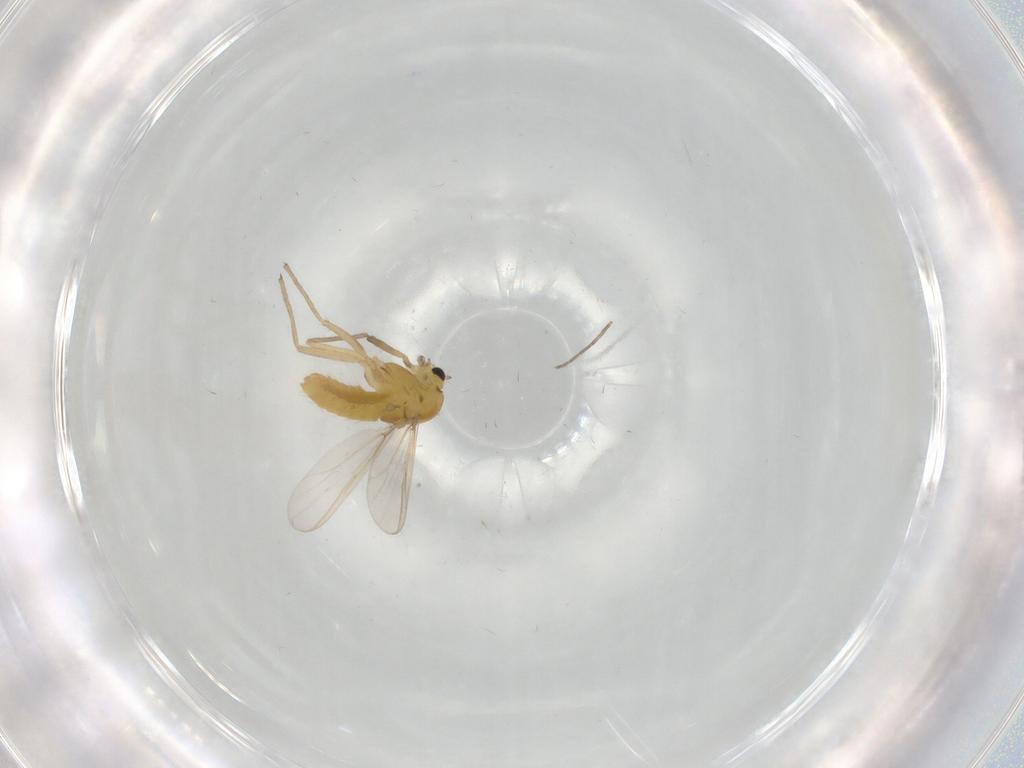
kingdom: Animalia
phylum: Arthropoda
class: Insecta
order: Diptera
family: Chironomidae
